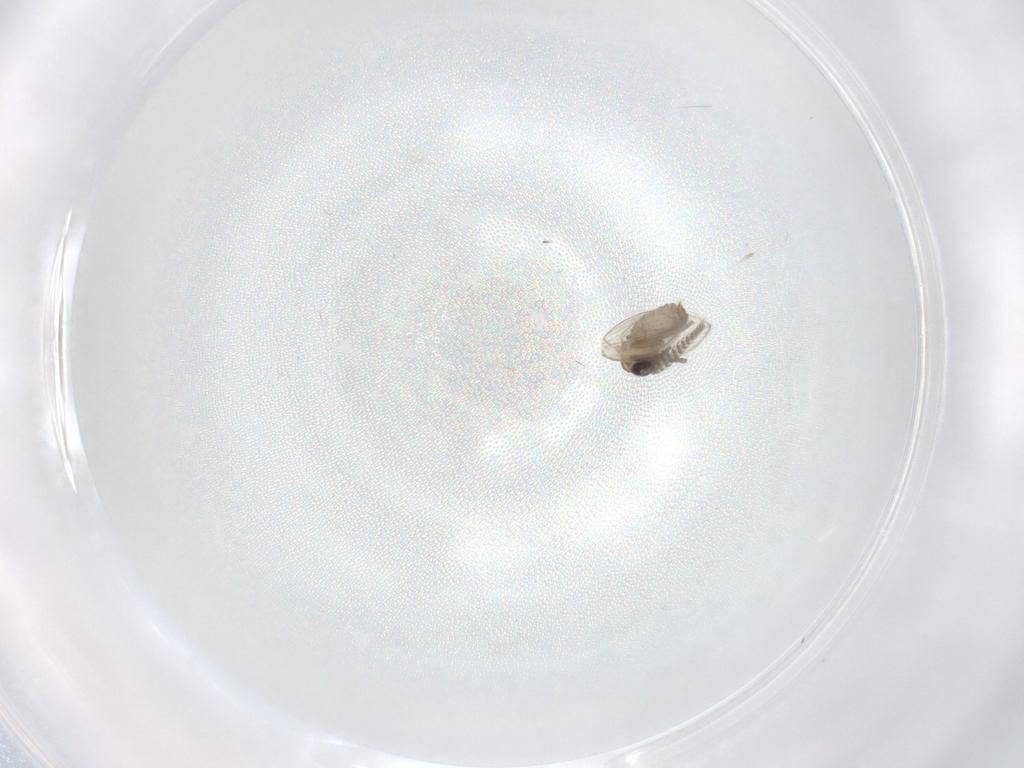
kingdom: Animalia
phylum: Arthropoda
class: Insecta
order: Diptera
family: Psychodidae
